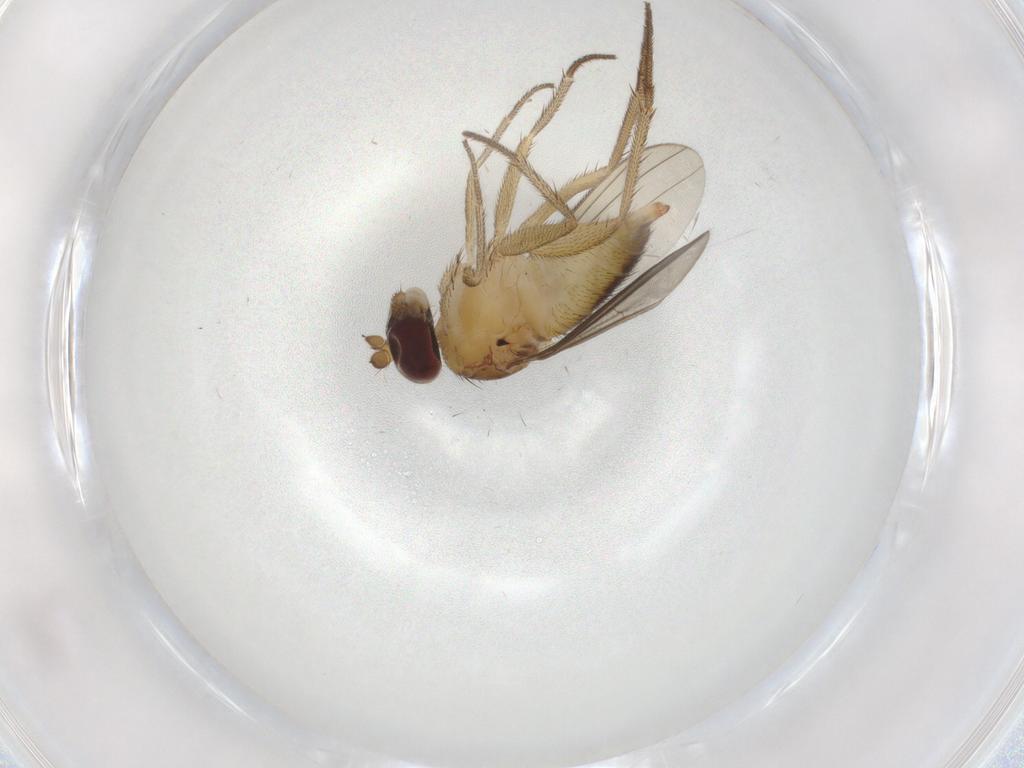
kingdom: Animalia
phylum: Arthropoda
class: Insecta
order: Diptera
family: Dolichopodidae
